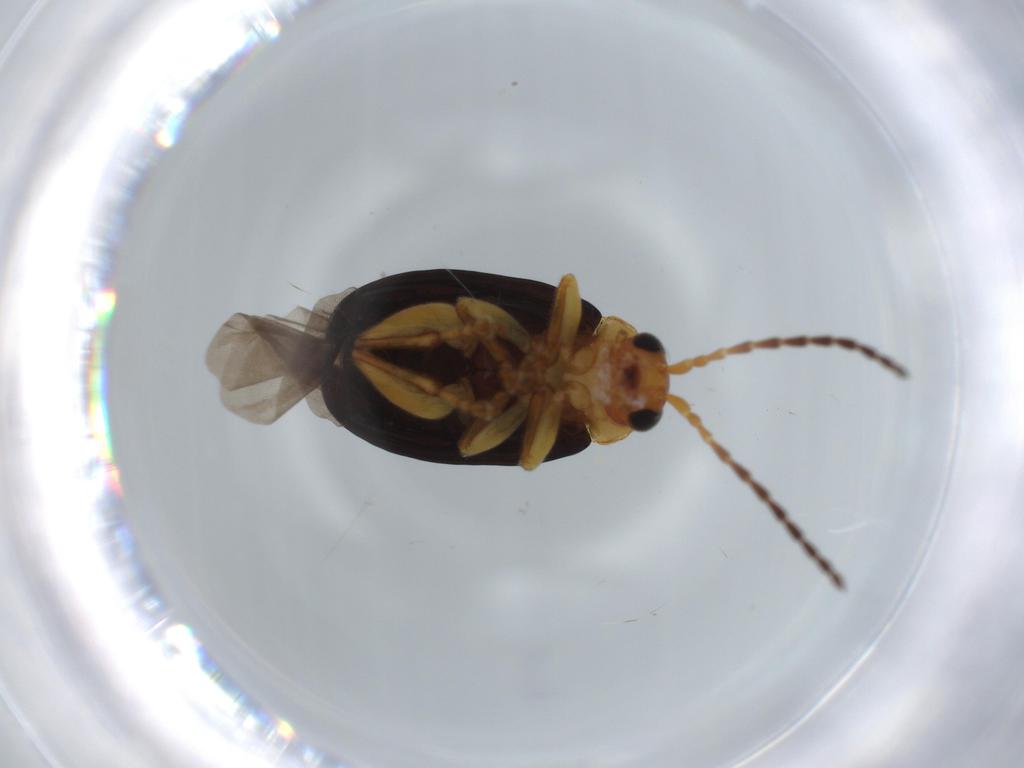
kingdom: Animalia
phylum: Arthropoda
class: Insecta
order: Coleoptera
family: Chrysomelidae
